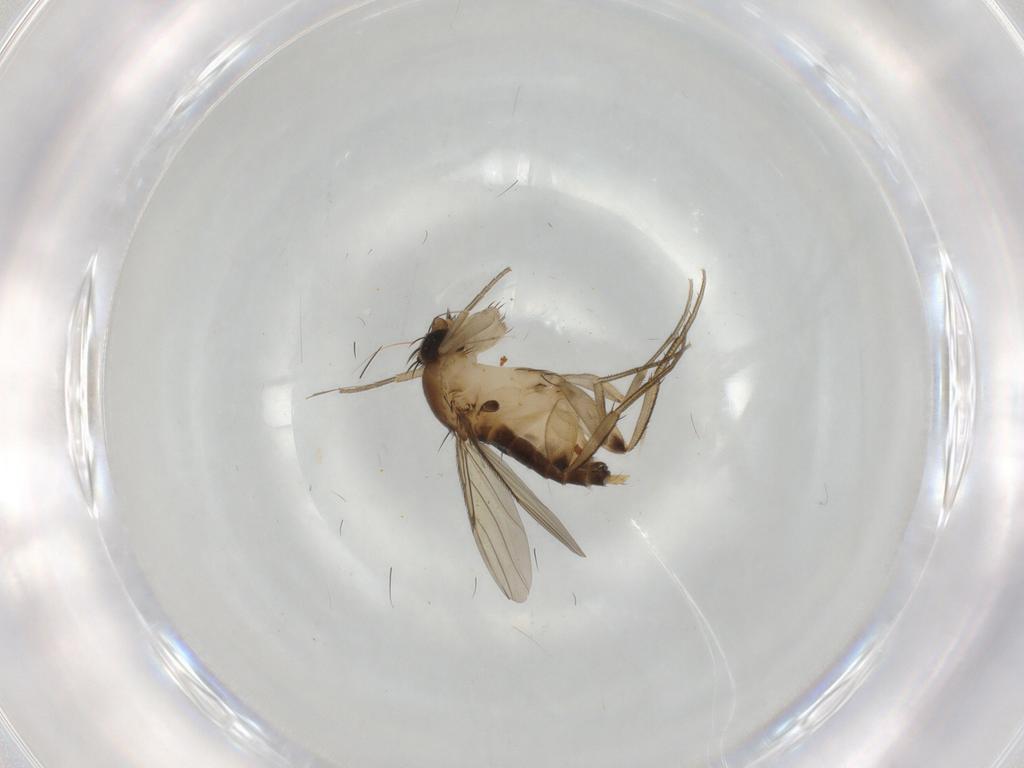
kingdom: Animalia
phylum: Arthropoda
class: Insecta
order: Diptera
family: Phoridae
